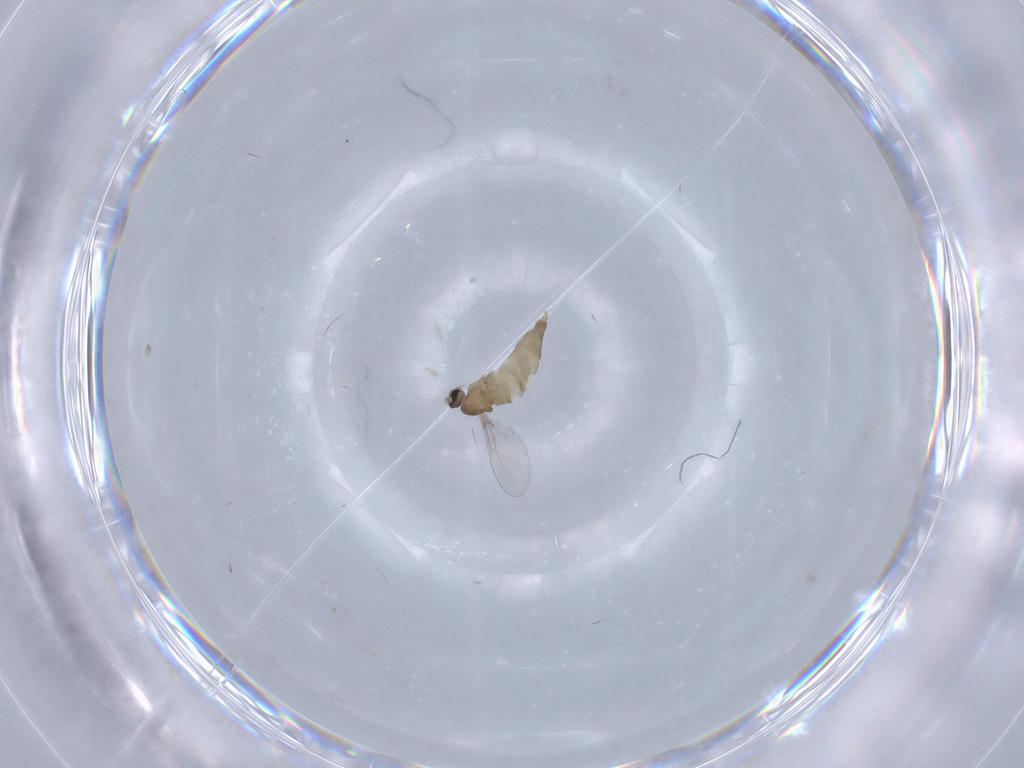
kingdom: Animalia
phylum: Arthropoda
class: Insecta
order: Diptera
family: Cecidomyiidae
